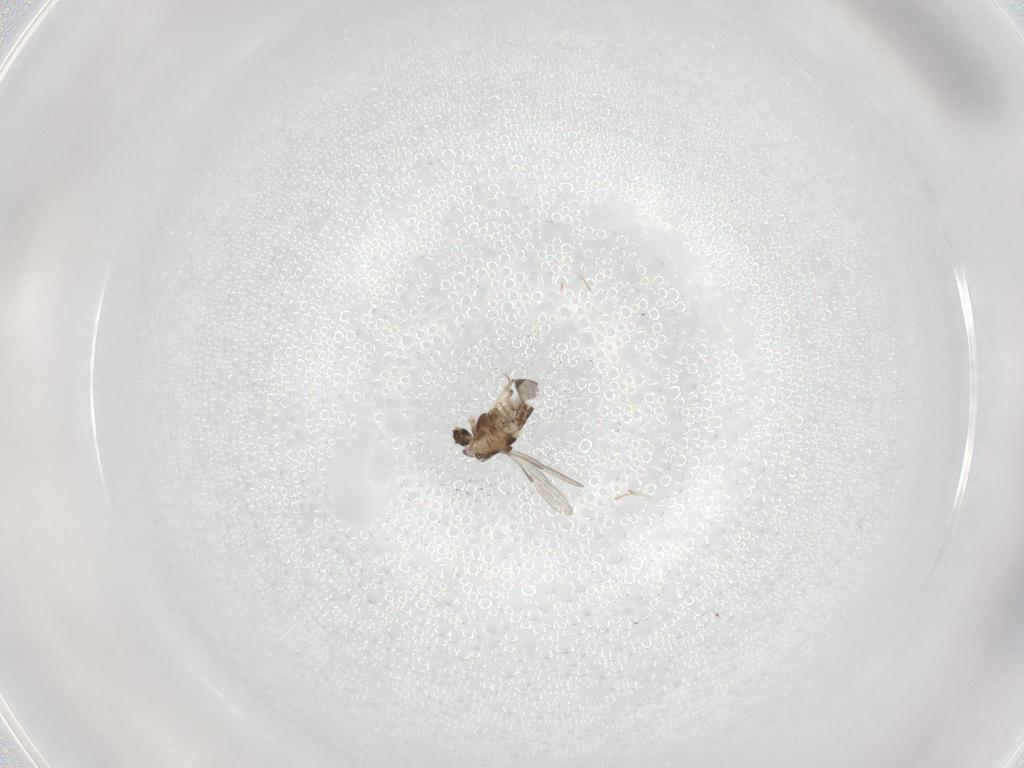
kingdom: Animalia
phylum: Arthropoda
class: Insecta
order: Diptera
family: Chironomidae
